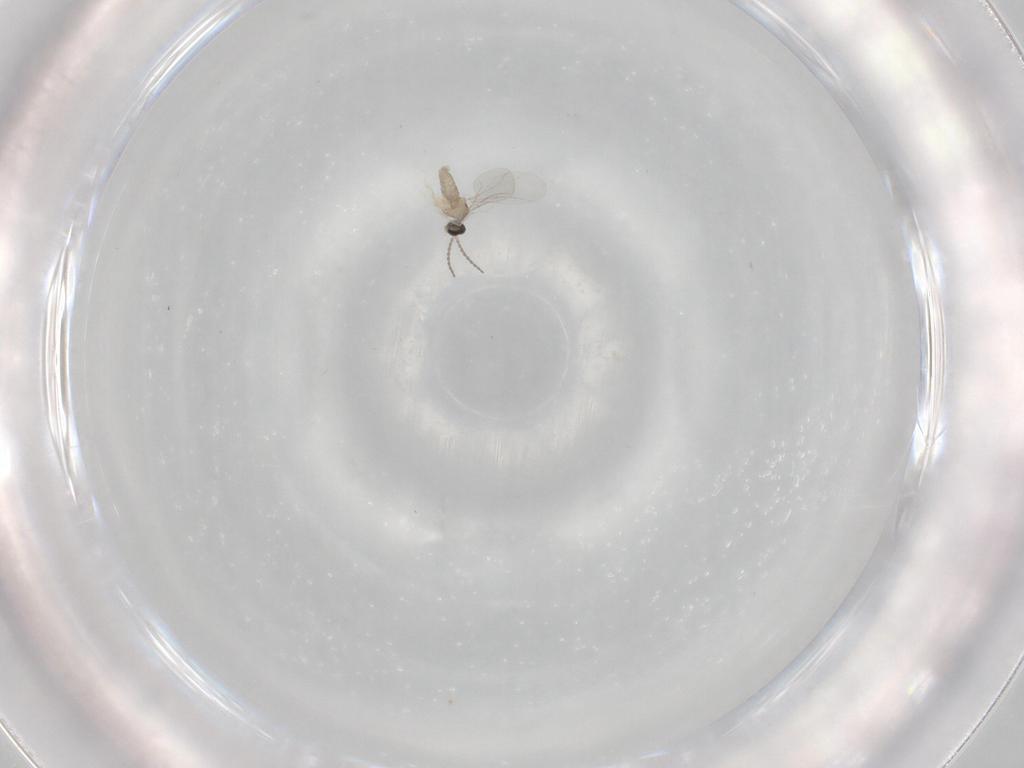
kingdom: Animalia
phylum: Arthropoda
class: Insecta
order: Diptera
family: Cecidomyiidae
